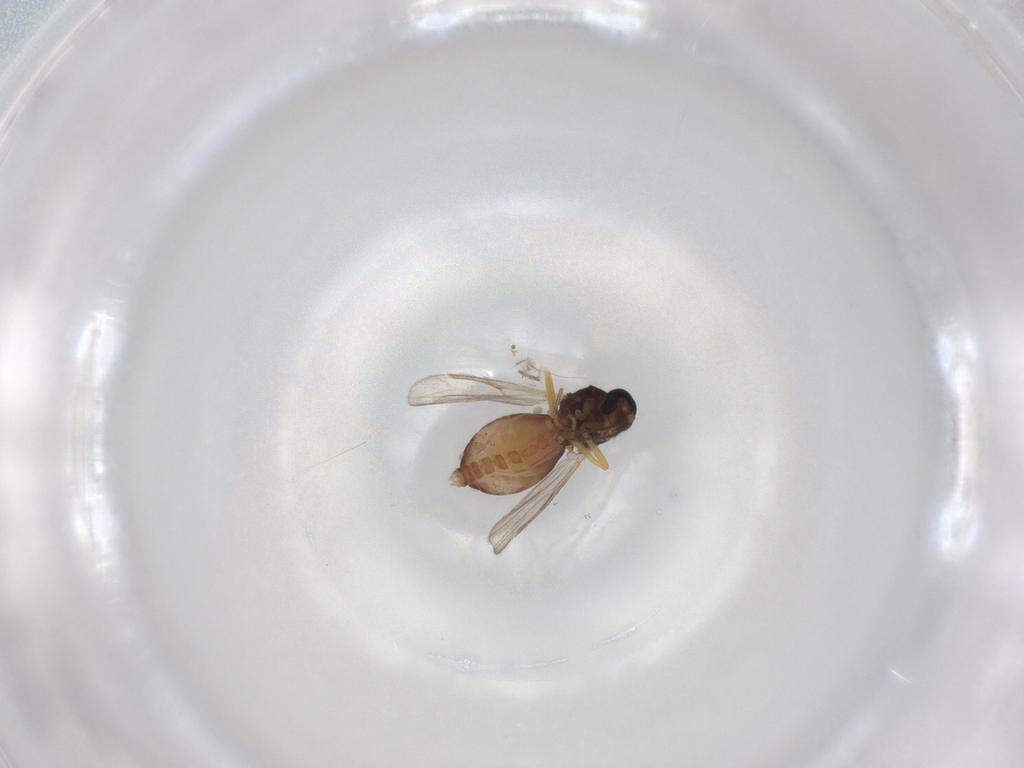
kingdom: Animalia
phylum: Arthropoda
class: Insecta
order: Diptera
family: Ceratopogonidae
